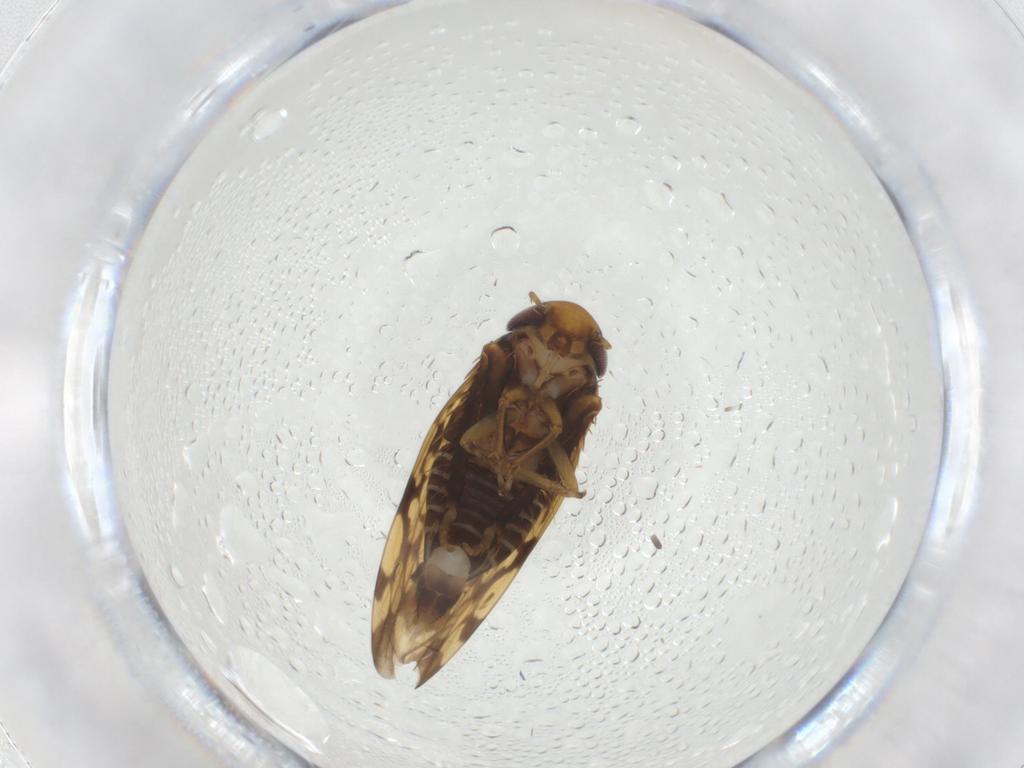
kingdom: Animalia
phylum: Arthropoda
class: Insecta
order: Hemiptera
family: Cicadellidae
